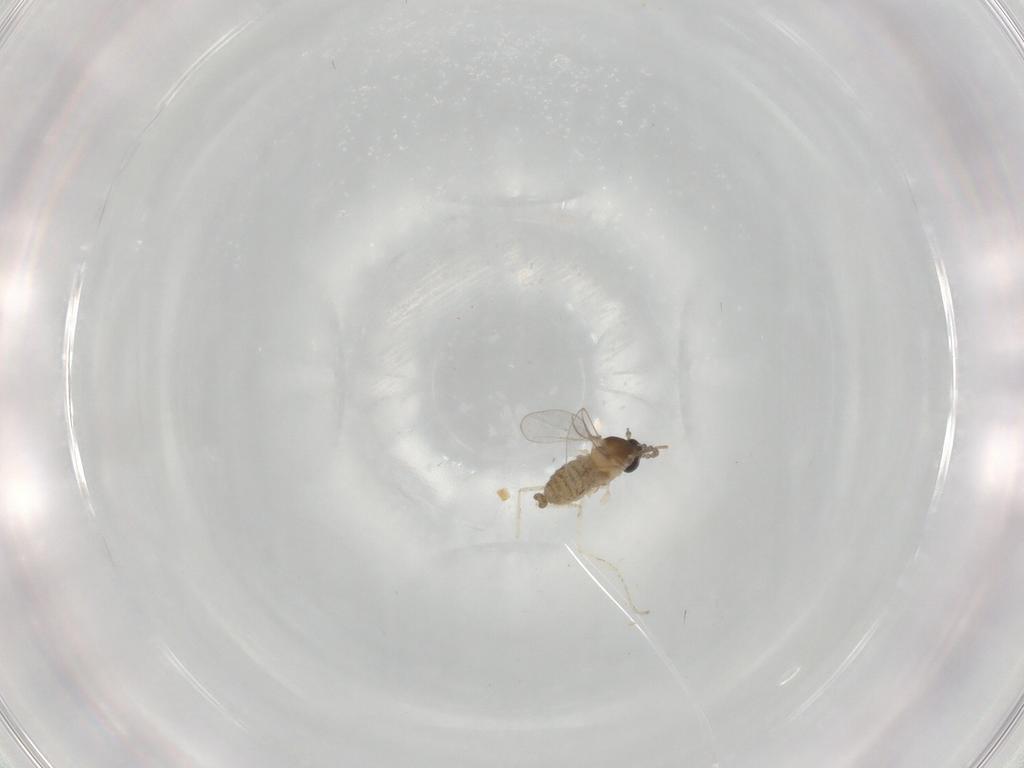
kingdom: Animalia
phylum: Arthropoda
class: Insecta
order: Diptera
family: Cecidomyiidae
